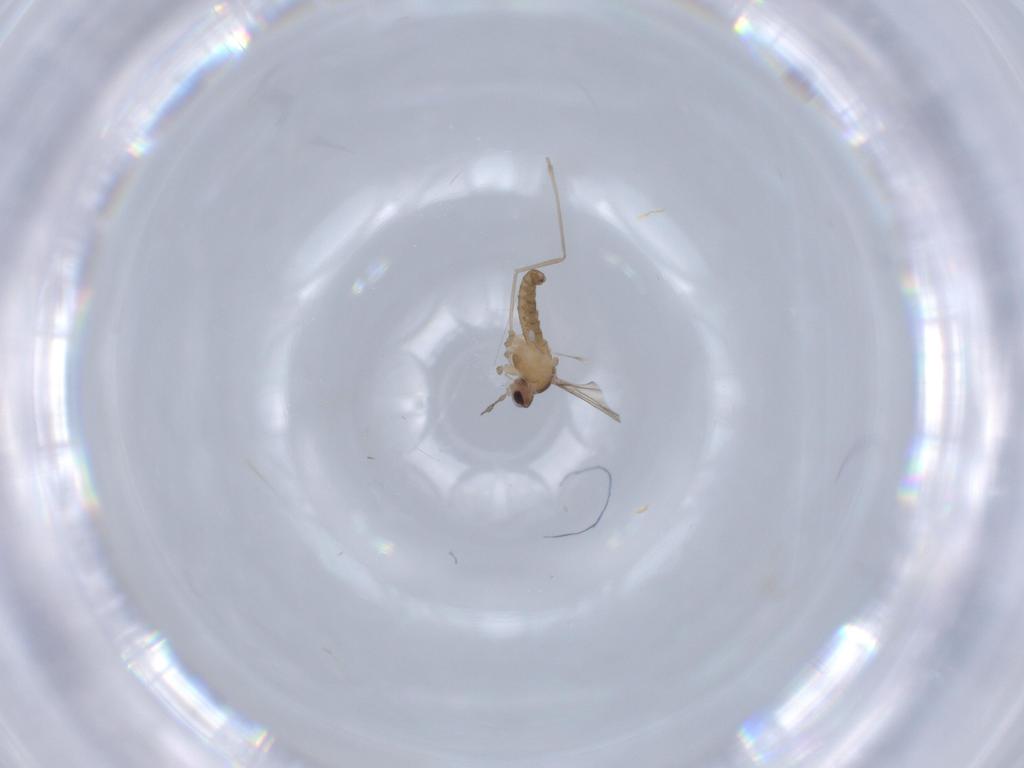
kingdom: Animalia
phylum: Arthropoda
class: Insecta
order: Diptera
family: Cecidomyiidae
